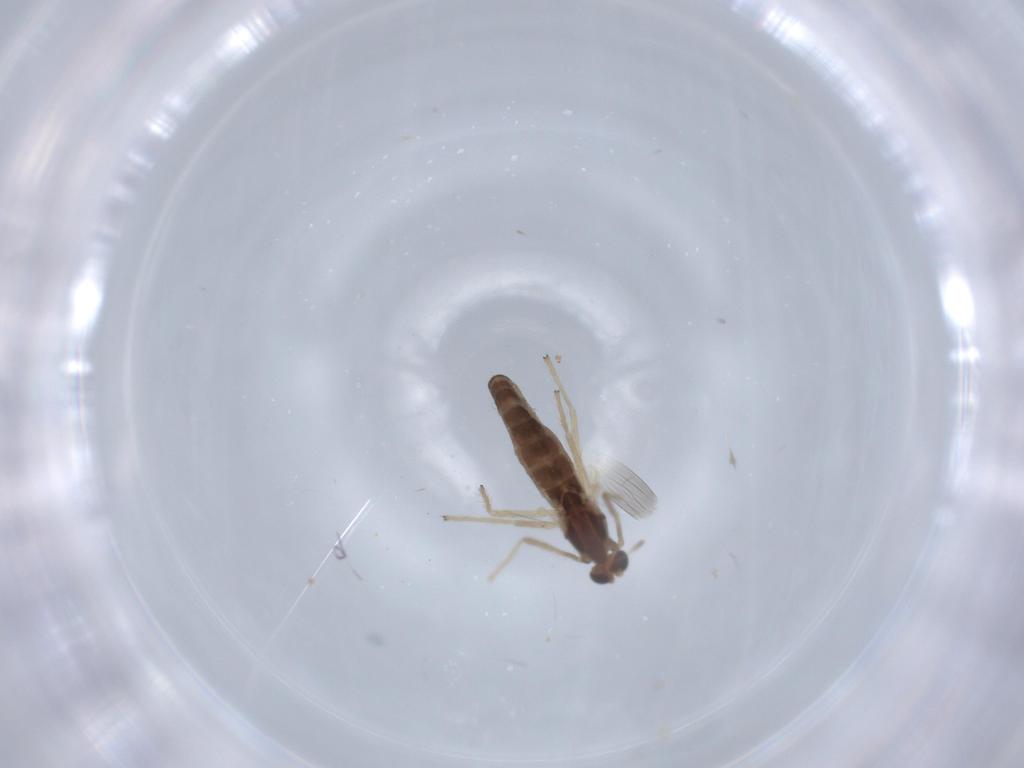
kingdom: Animalia
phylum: Arthropoda
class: Insecta
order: Diptera
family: Chironomidae
